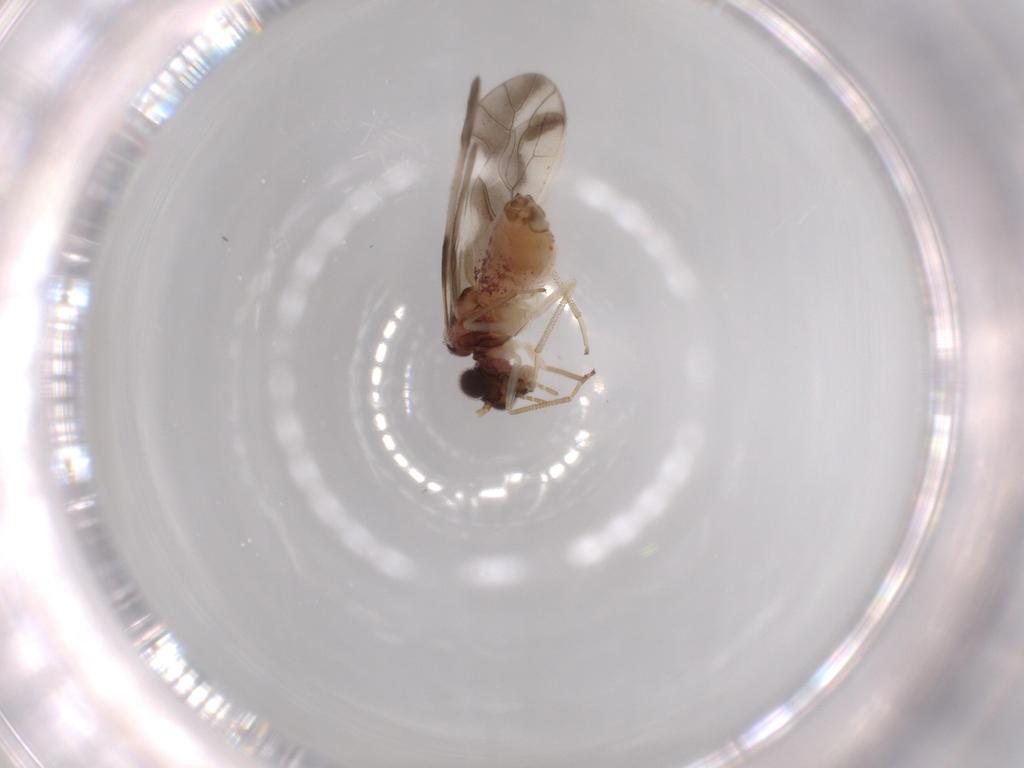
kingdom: Animalia
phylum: Arthropoda
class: Insecta
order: Psocodea
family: Caeciliusidae
